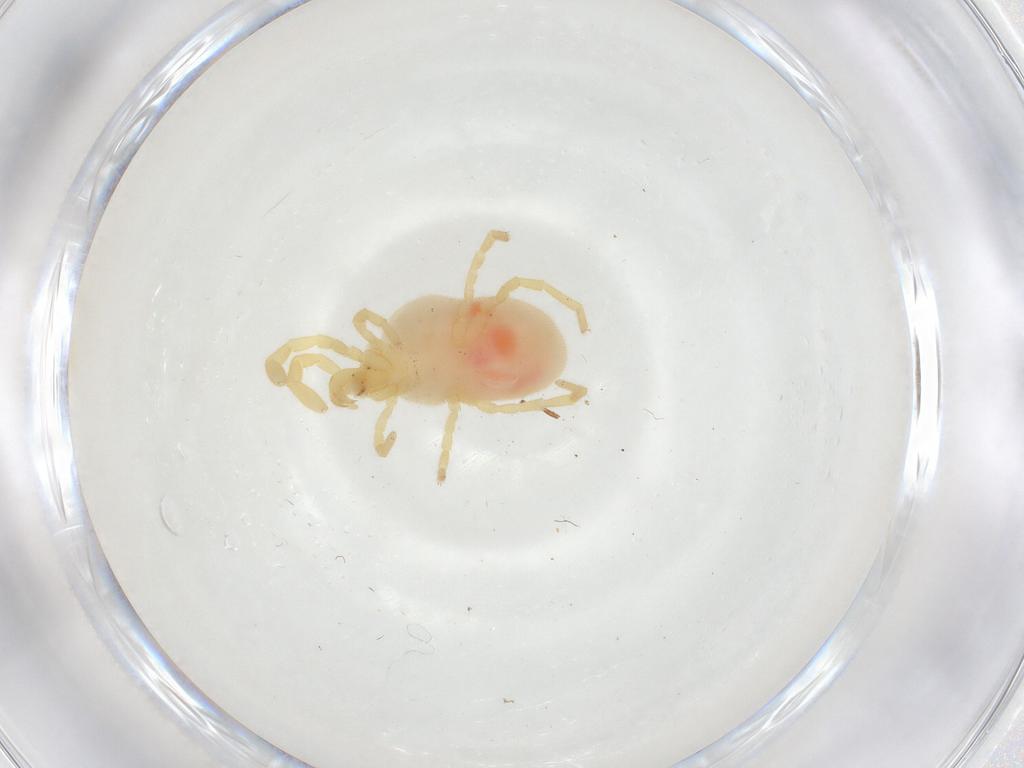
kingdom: Animalia
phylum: Arthropoda
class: Arachnida
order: Trombidiformes
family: Podothrombiidae
